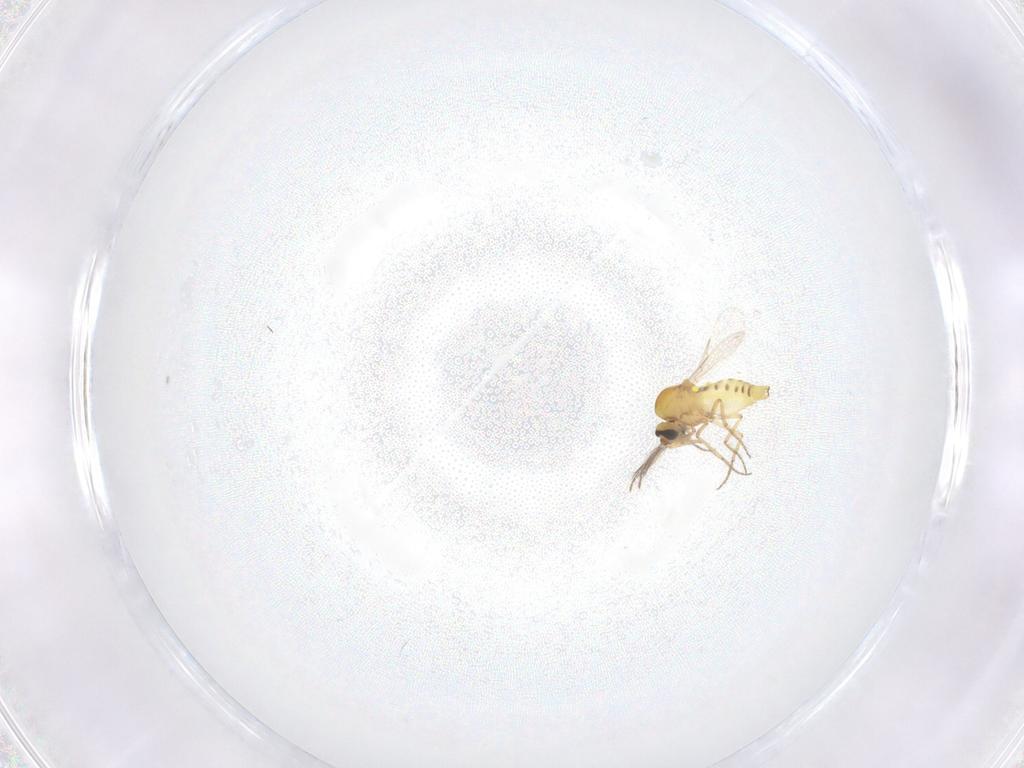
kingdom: Animalia
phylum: Arthropoda
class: Insecta
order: Diptera
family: Ceratopogonidae
